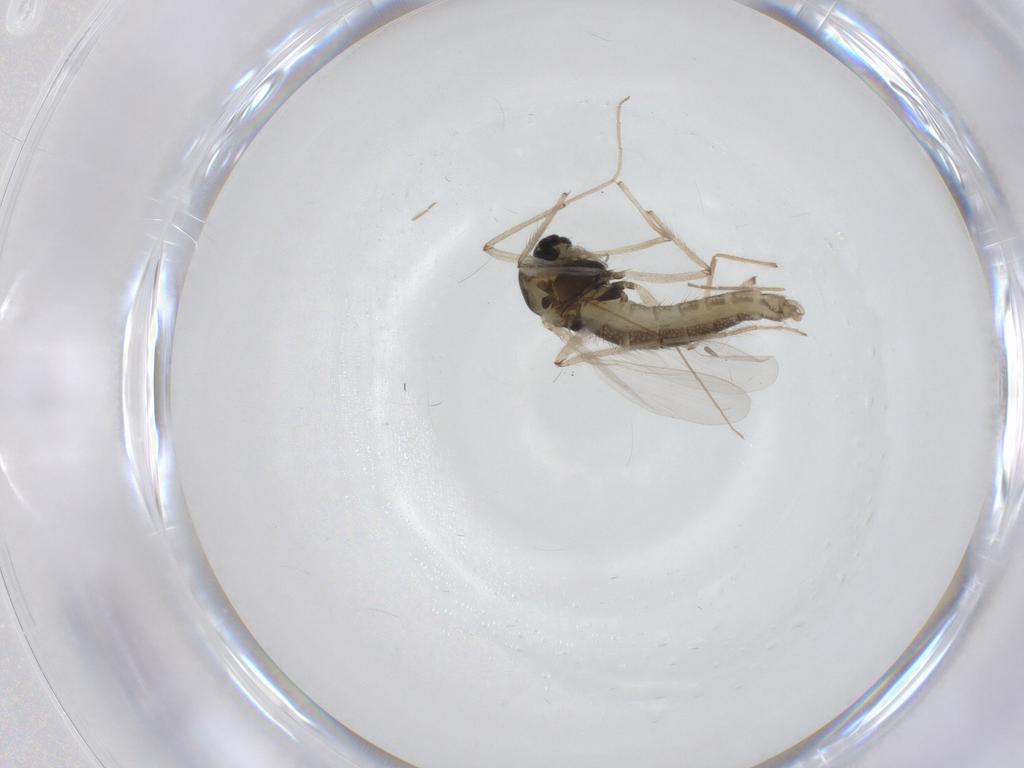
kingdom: Animalia
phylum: Arthropoda
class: Insecta
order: Diptera
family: Chironomidae
